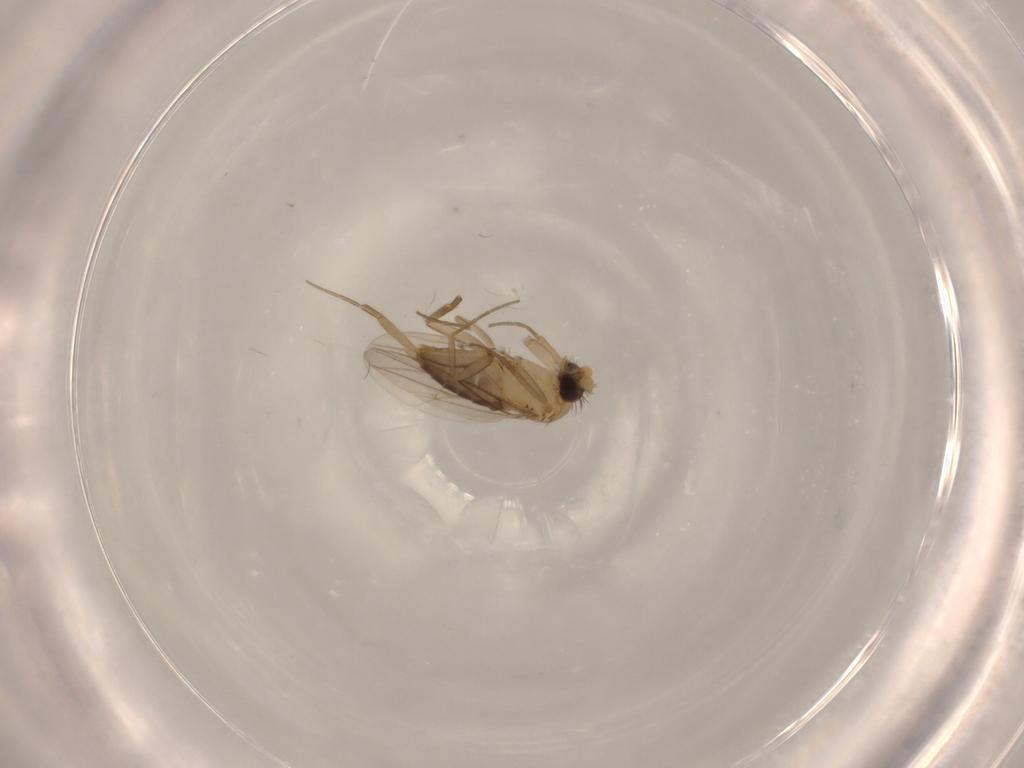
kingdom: Animalia
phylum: Arthropoda
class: Insecta
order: Diptera
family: Phoridae
